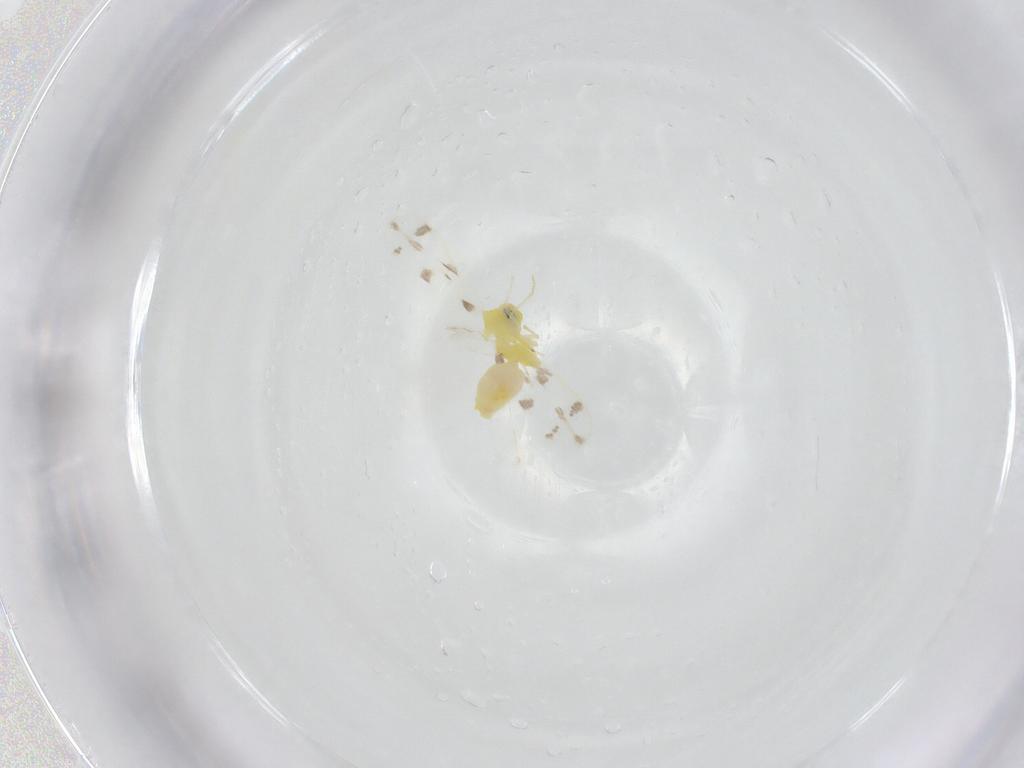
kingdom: Animalia
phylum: Arthropoda
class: Insecta
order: Hemiptera
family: Aleyrodidae
